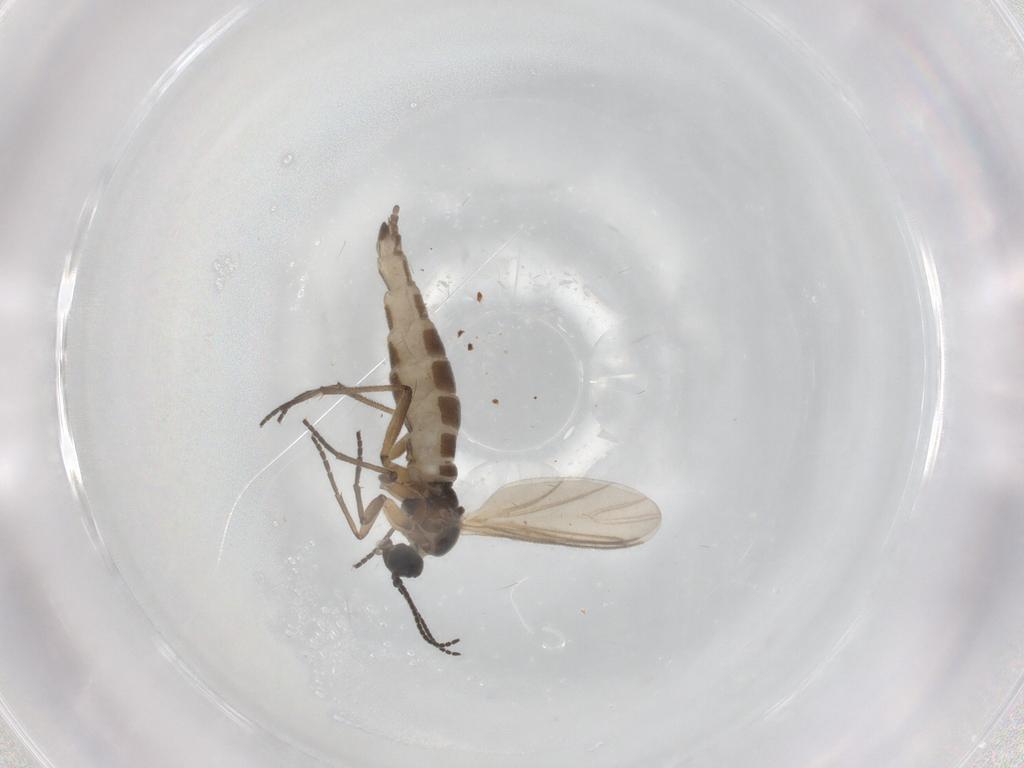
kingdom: Animalia
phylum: Arthropoda
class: Insecta
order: Diptera
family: Sciaridae
